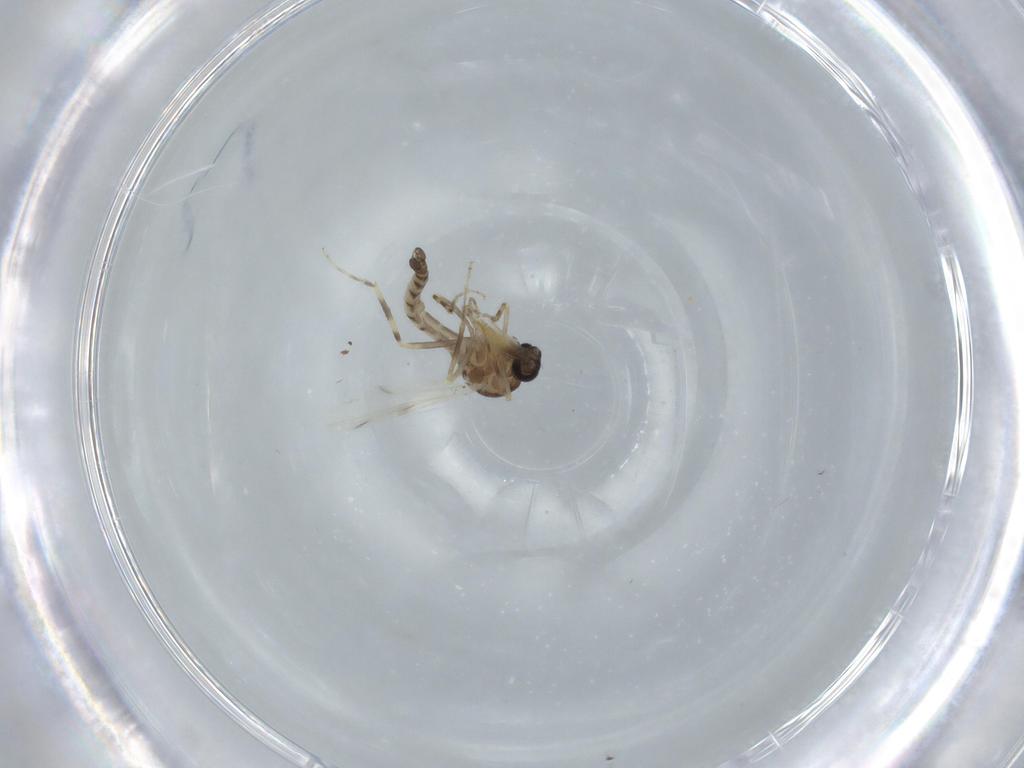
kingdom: Animalia
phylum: Arthropoda
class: Insecta
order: Diptera
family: Ceratopogonidae
